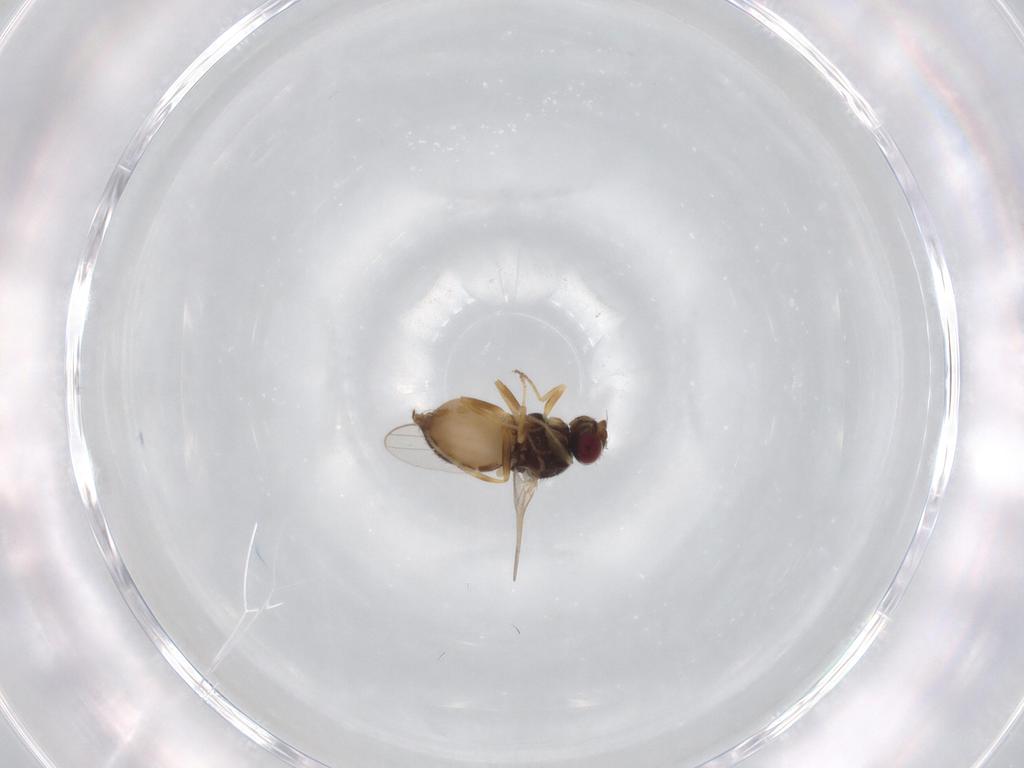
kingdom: Animalia
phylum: Arthropoda
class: Insecta
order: Diptera
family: Chloropidae
